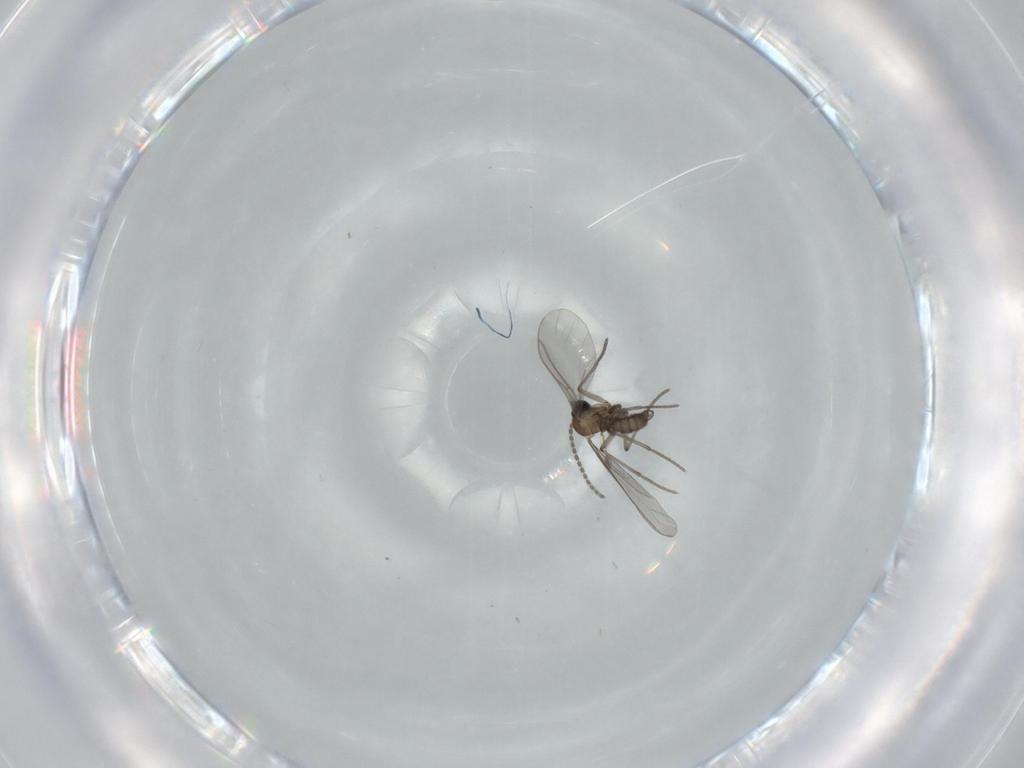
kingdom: Animalia
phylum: Arthropoda
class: Insecta
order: Diptera
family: Sciaridae
